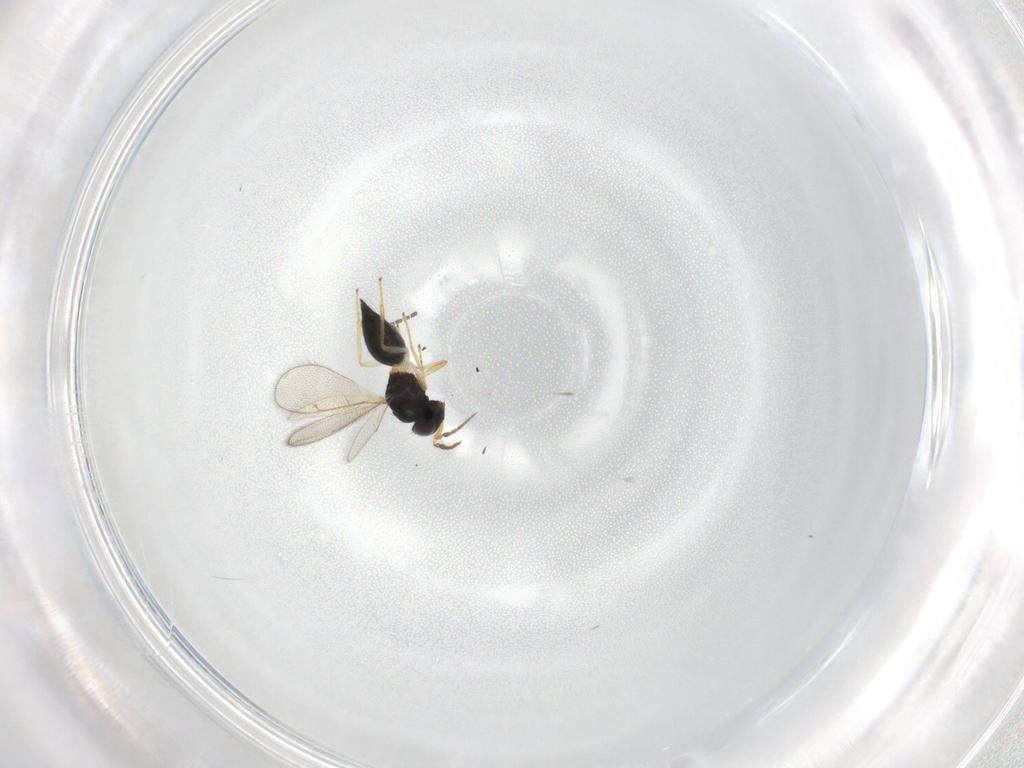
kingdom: Animalia
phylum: Arthropoda
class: Insecta
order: Hymenoptera
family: Eulophidae
